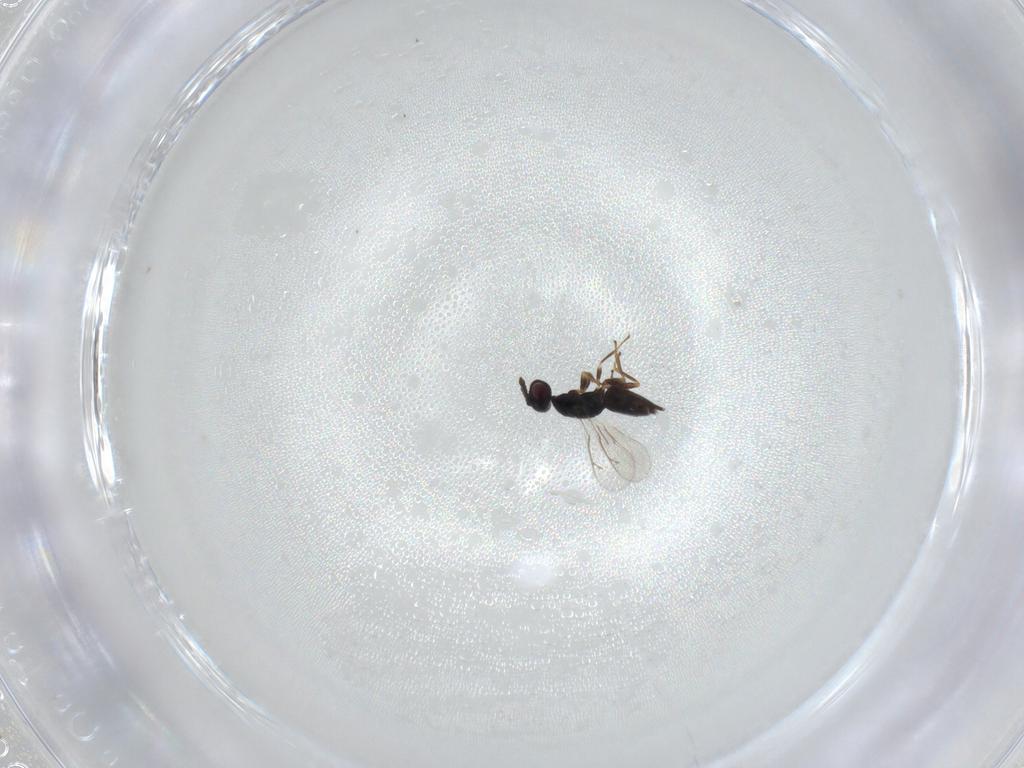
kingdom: Animalia
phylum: Arthropoda
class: Insecta
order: Hymenoptera
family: Eulophidae
